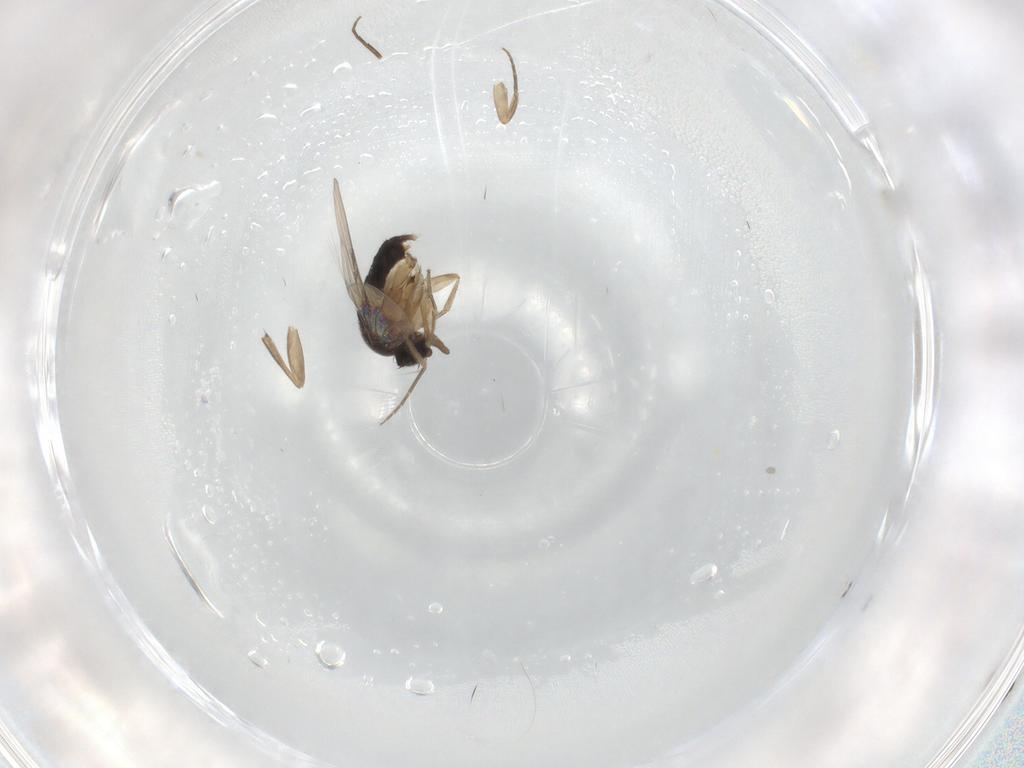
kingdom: Animalia
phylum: Arthropoda
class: Insecta
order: Diptera
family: Phoridae
